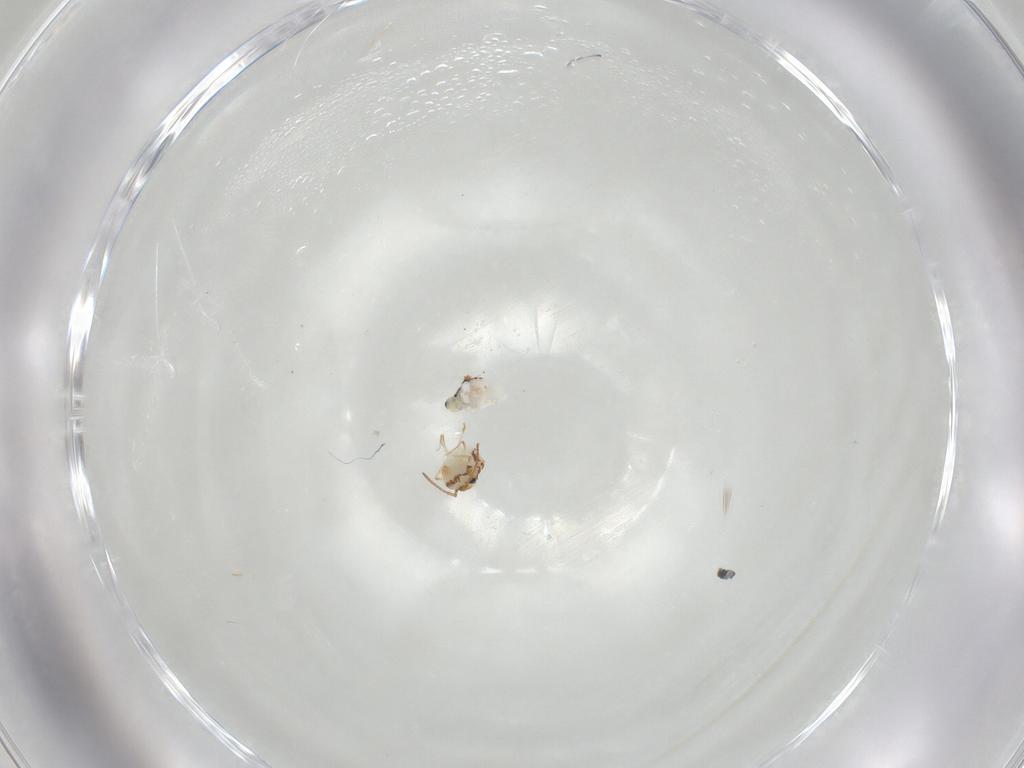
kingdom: Animalia
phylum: Arthropoda
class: Collembola
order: Symphypleona
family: Bourletiellidae
